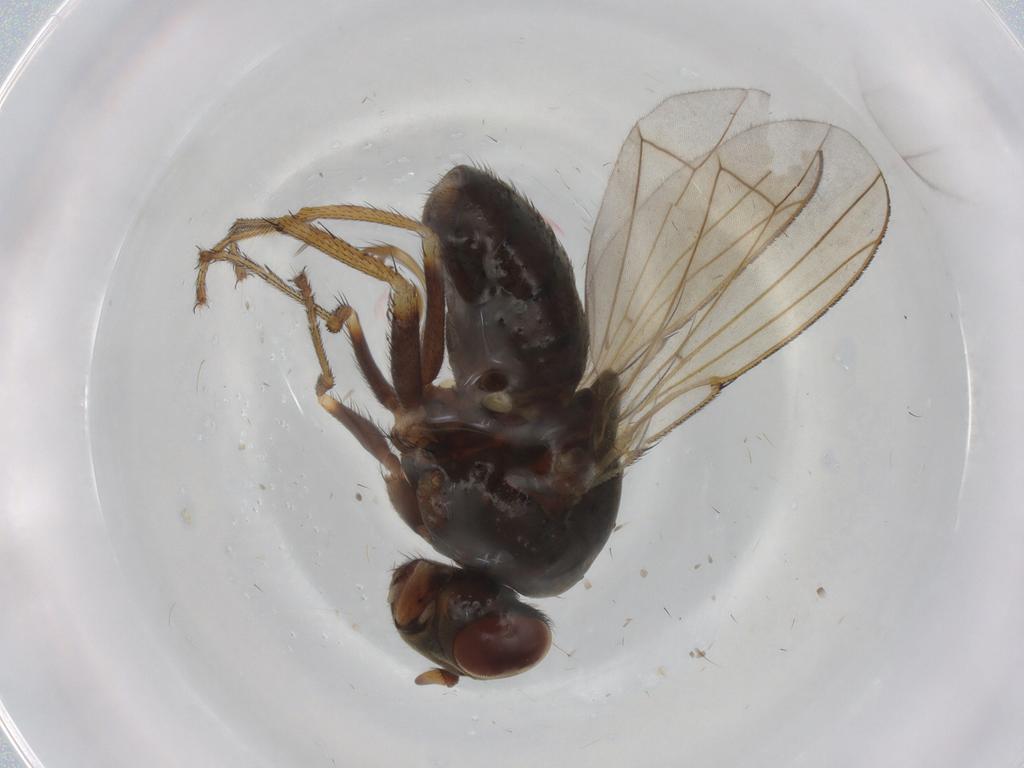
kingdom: Animalia
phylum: Arthropoda
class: Insecta
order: Diptera
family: Ephydridae
